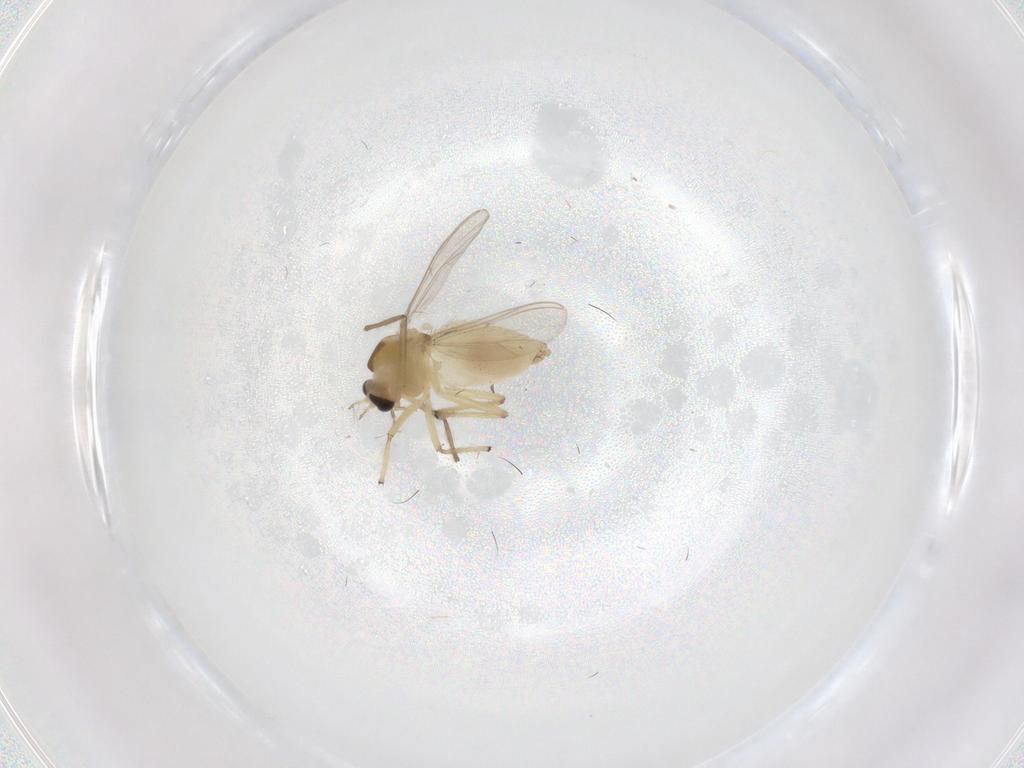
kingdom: Animalia
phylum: Arthropoda
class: Insecta
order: Diptera
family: Chironomidae
